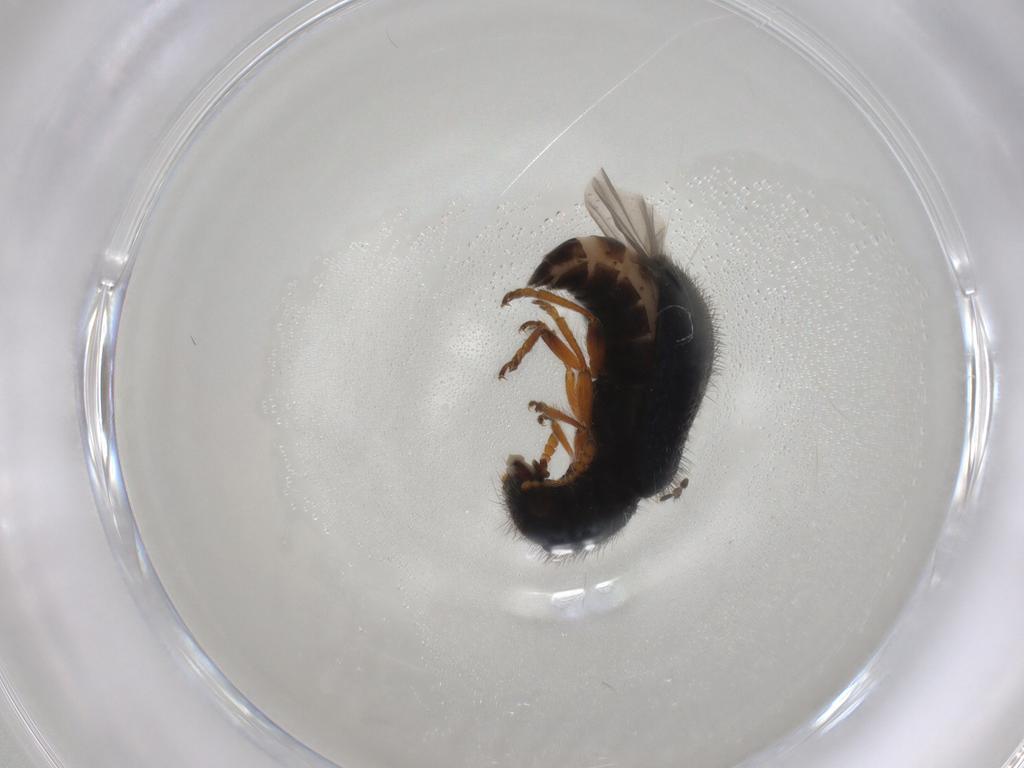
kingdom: Animalia
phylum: Arthropoda
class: Insecta
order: Coleoptera
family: Cleridae
